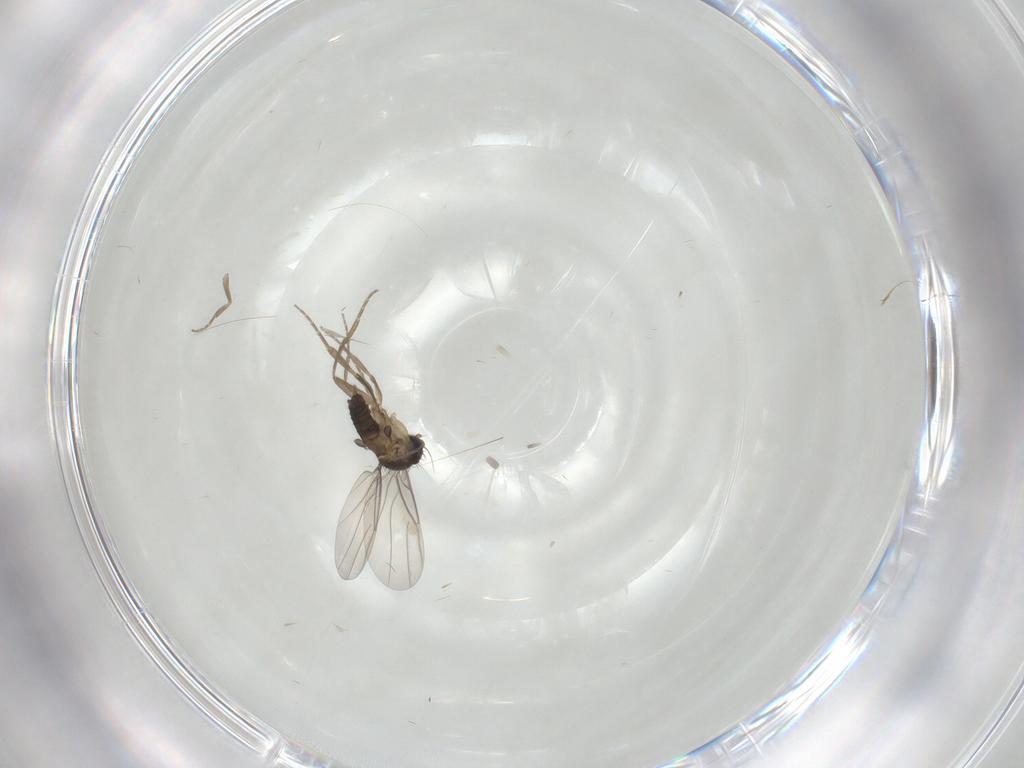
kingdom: Animalia
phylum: Arthropoda
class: Insecta
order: Diptera
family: Phoridae
